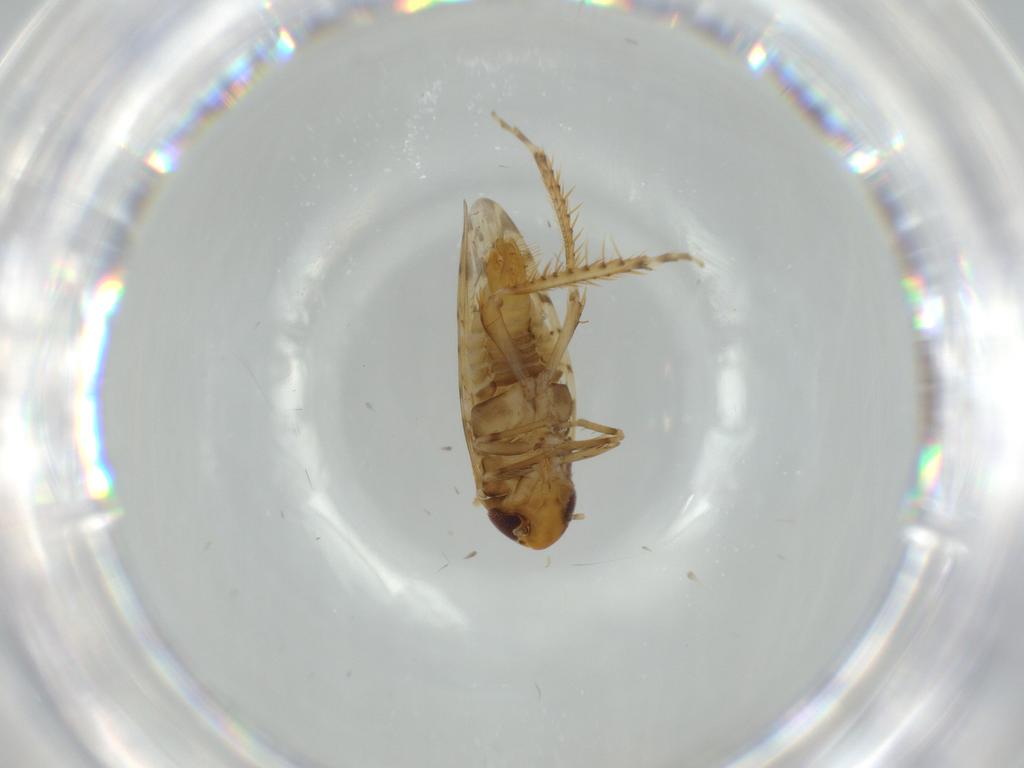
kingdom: Animalia
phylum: Arthropoda
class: Insecta
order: Hemiptera
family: Cicadellidae
